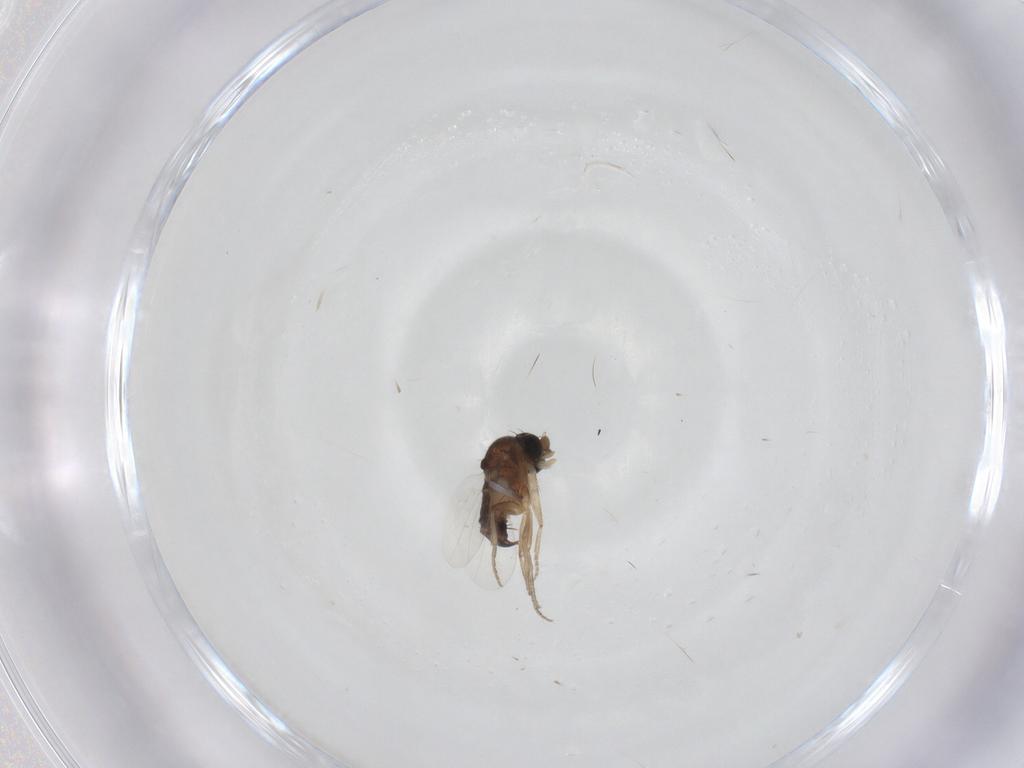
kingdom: Animalia
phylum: Arthropoda
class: Insecta
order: Diptera
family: Phoridae
